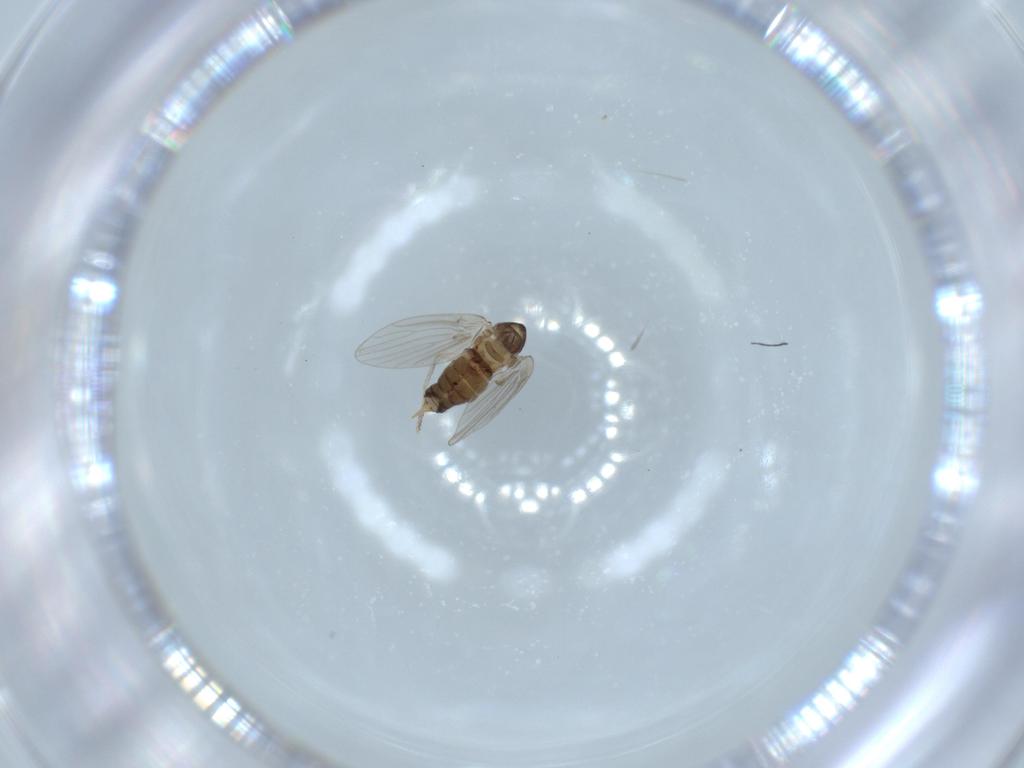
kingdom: Animalia
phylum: Arthropoda
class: Insecta
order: Diptera
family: Psychodidae
